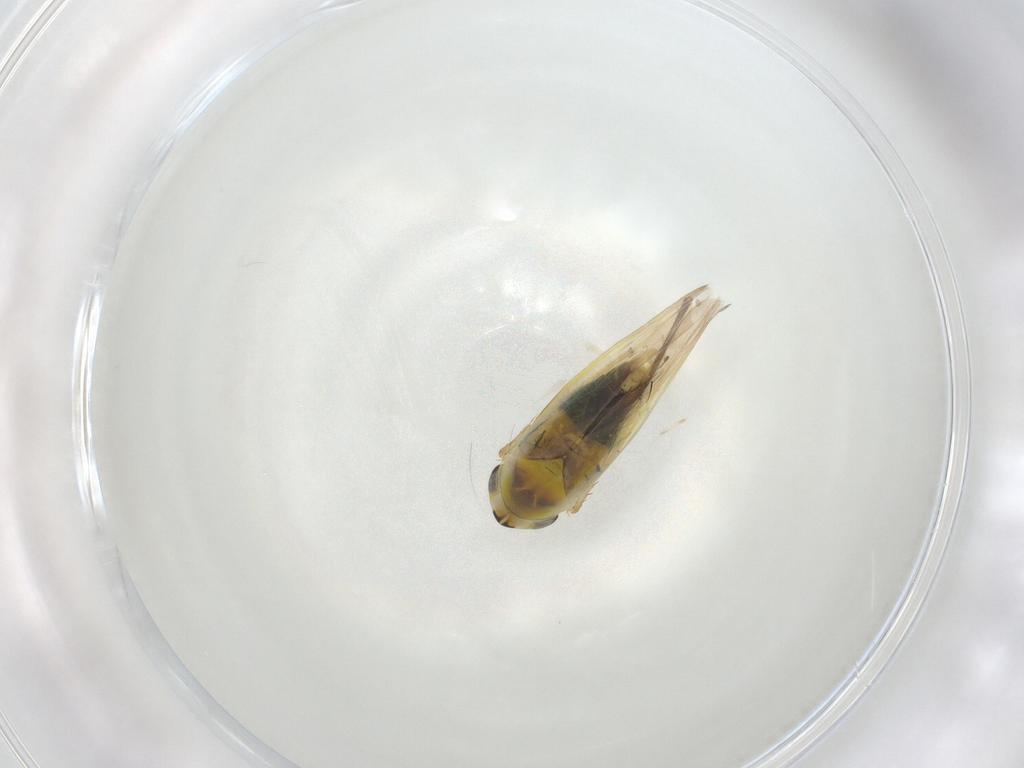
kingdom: Animalia
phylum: Arthropoda
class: Insecta
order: Hemiptera
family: Cicadellidae
